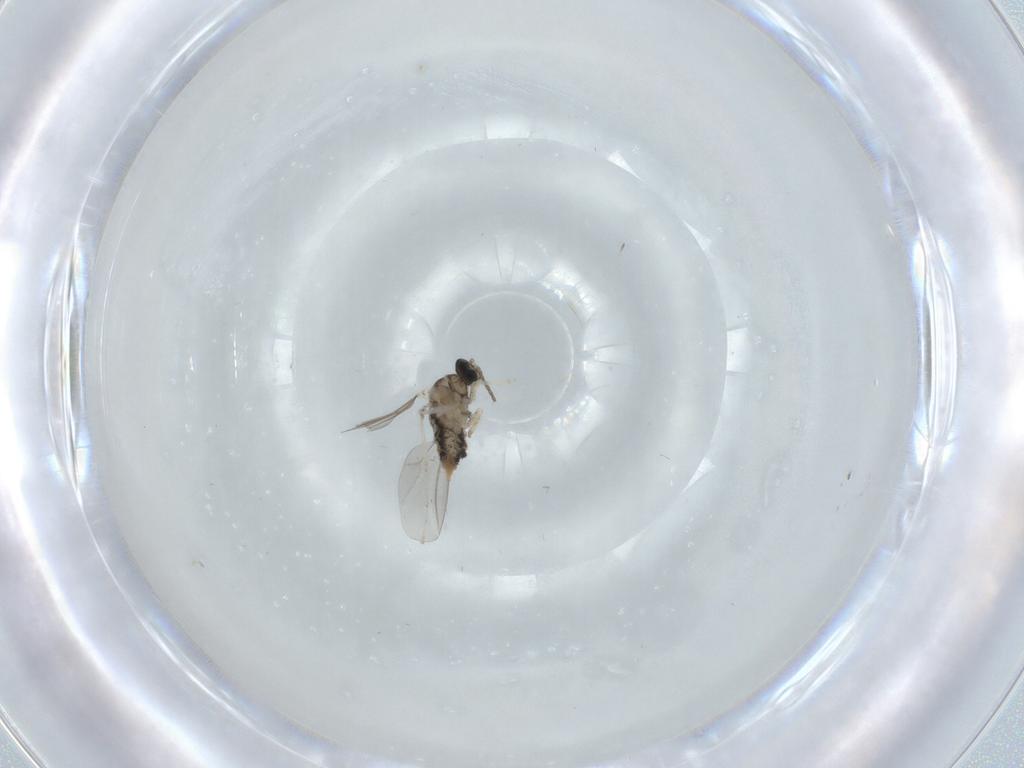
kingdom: Animalia
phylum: Arthropoda
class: Insecta
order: Diptera
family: Cecidomyiidae
